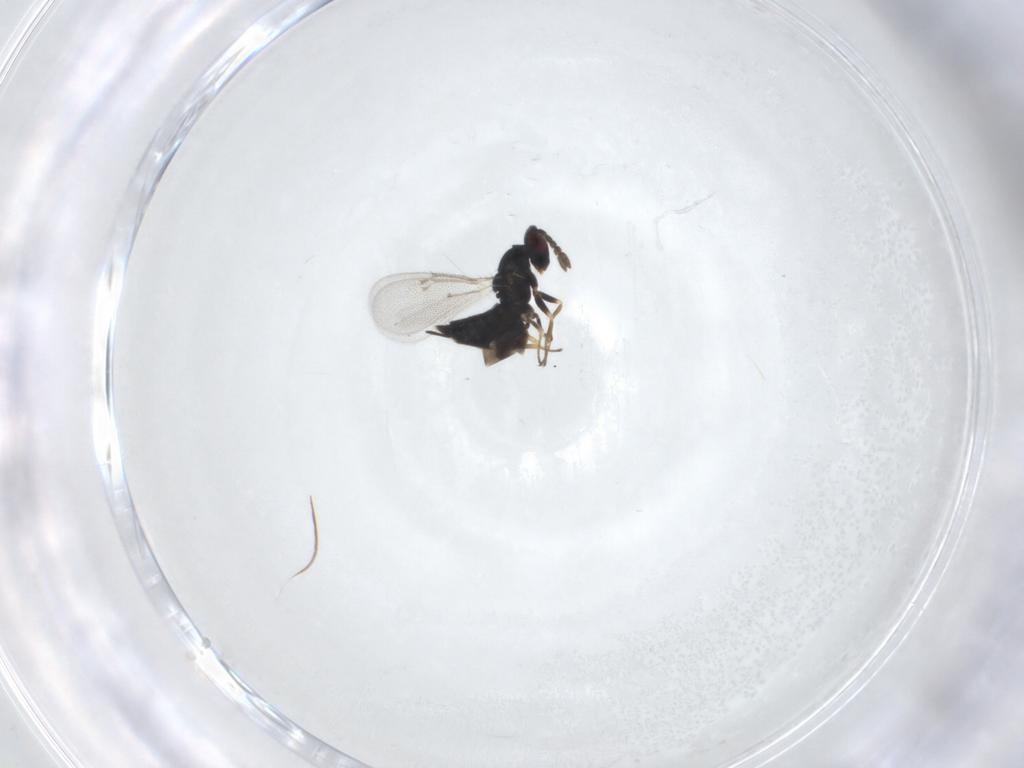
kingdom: Animalia
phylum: Arthropoda
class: Insecta
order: Hymenoptera
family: Eulophidae
